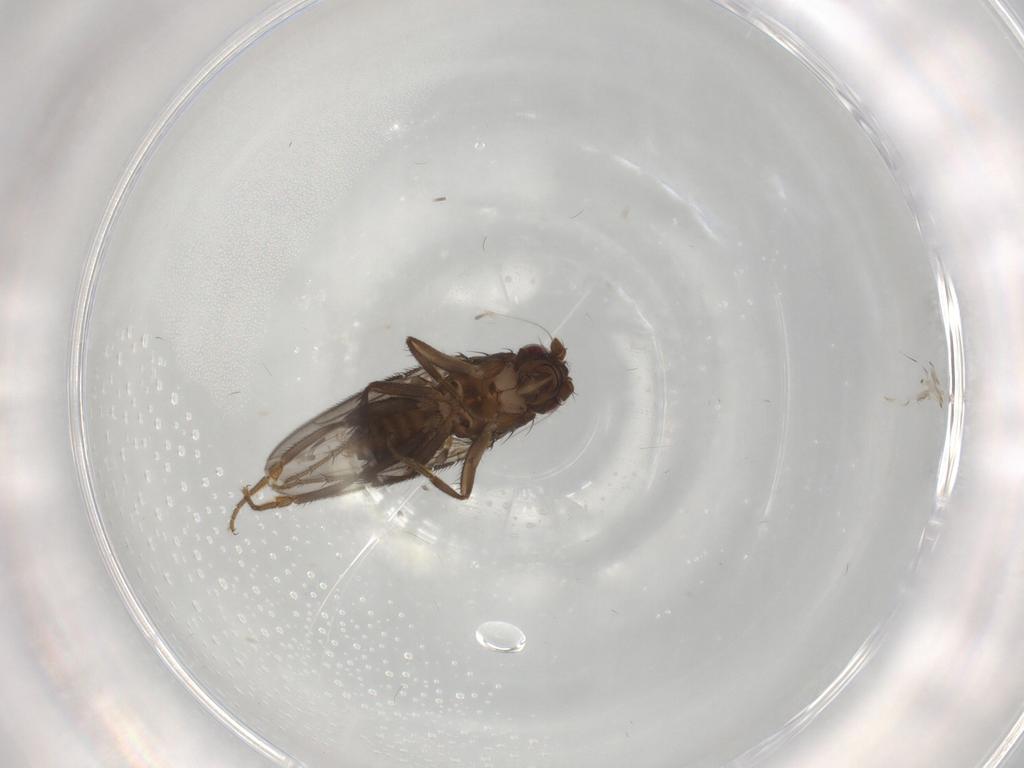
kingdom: Animalia
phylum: Arthropoda
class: Insecta
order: Diptera
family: Sphaeroceridae
